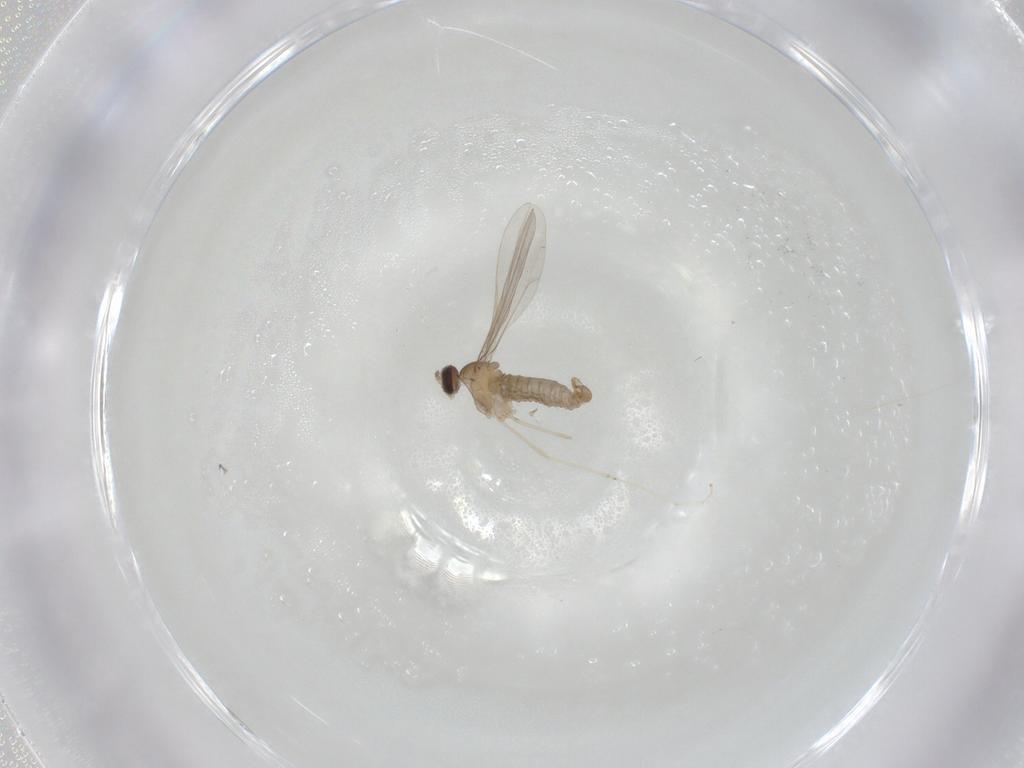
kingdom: Animalia
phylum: Arthropoda
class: Insecta
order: Diptera
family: Cecidomyiidae
